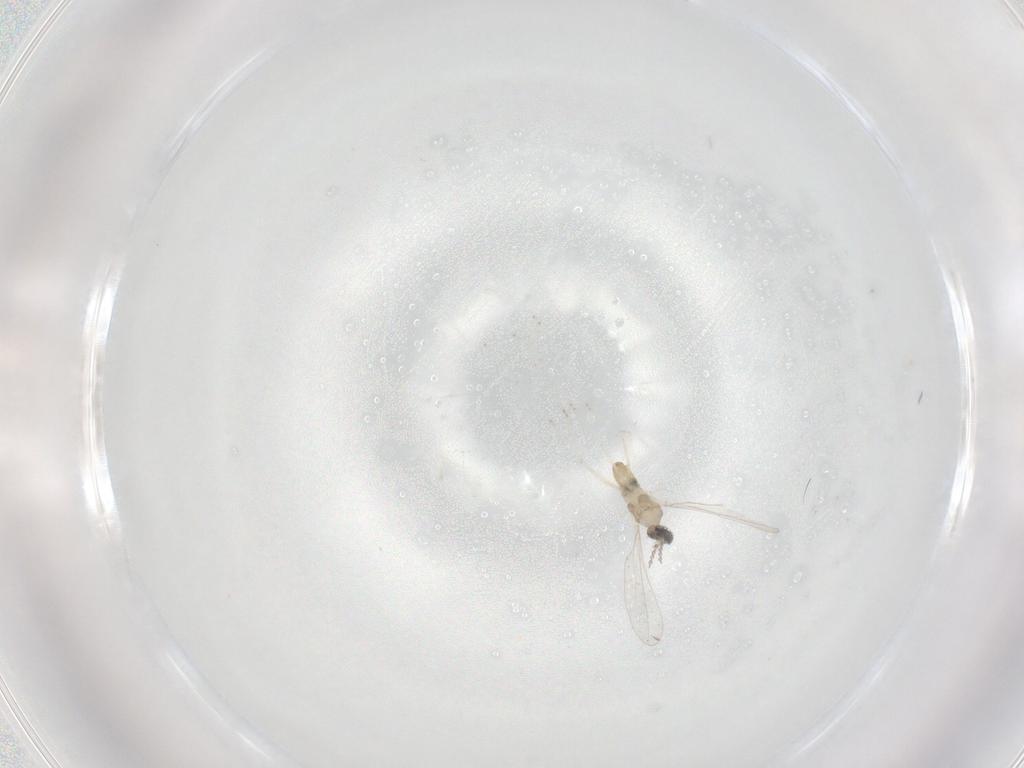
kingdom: Animalia
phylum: Arthropoda
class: Insecta
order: Diptera
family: Cecidomyiidae
